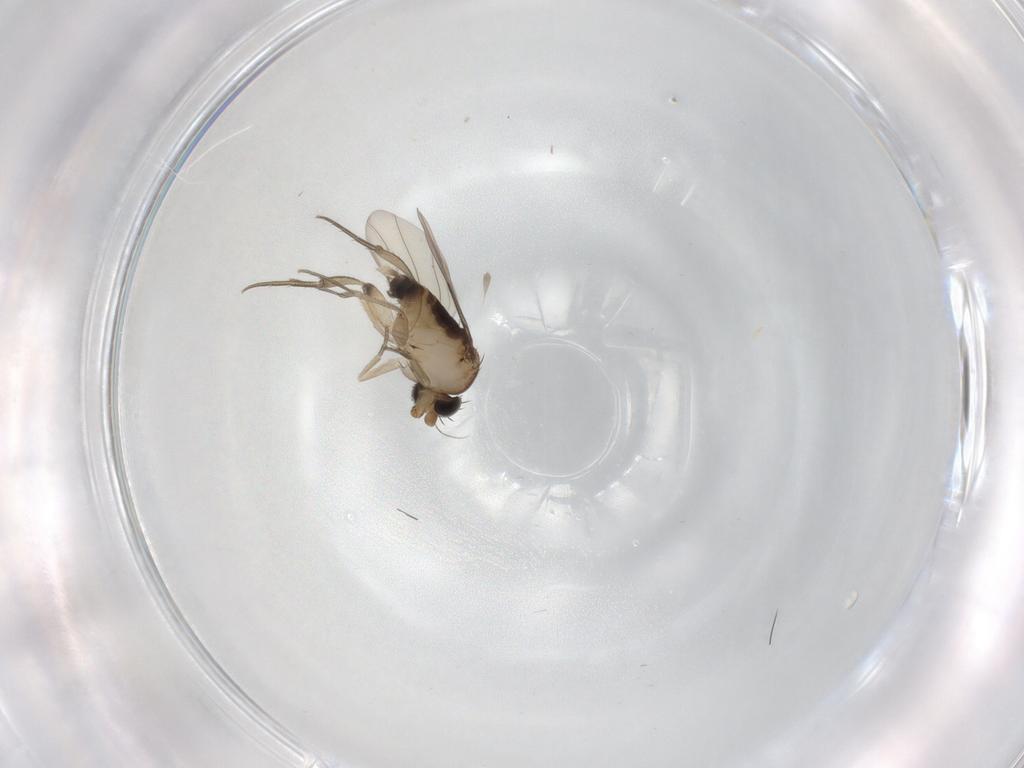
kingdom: Animalia
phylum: Arthropoda
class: Insecta
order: Diptera
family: Phoridae
